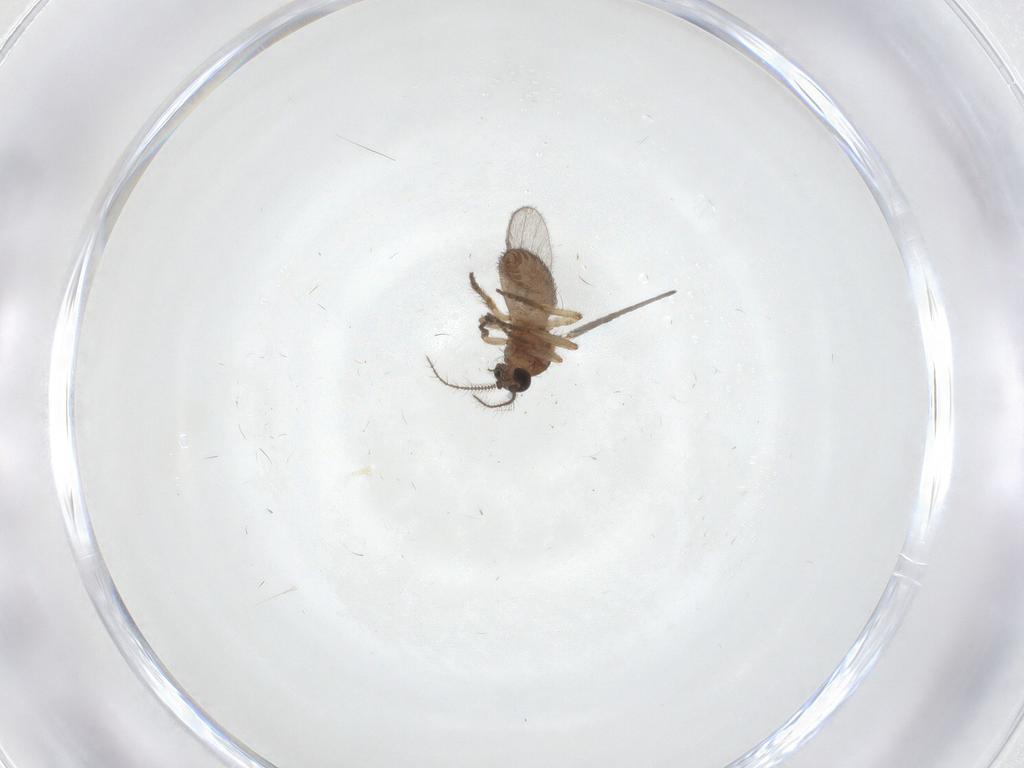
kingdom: Animalia
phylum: Arthropoda
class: Insecta
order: Diptera
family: Ceratopogonidae
